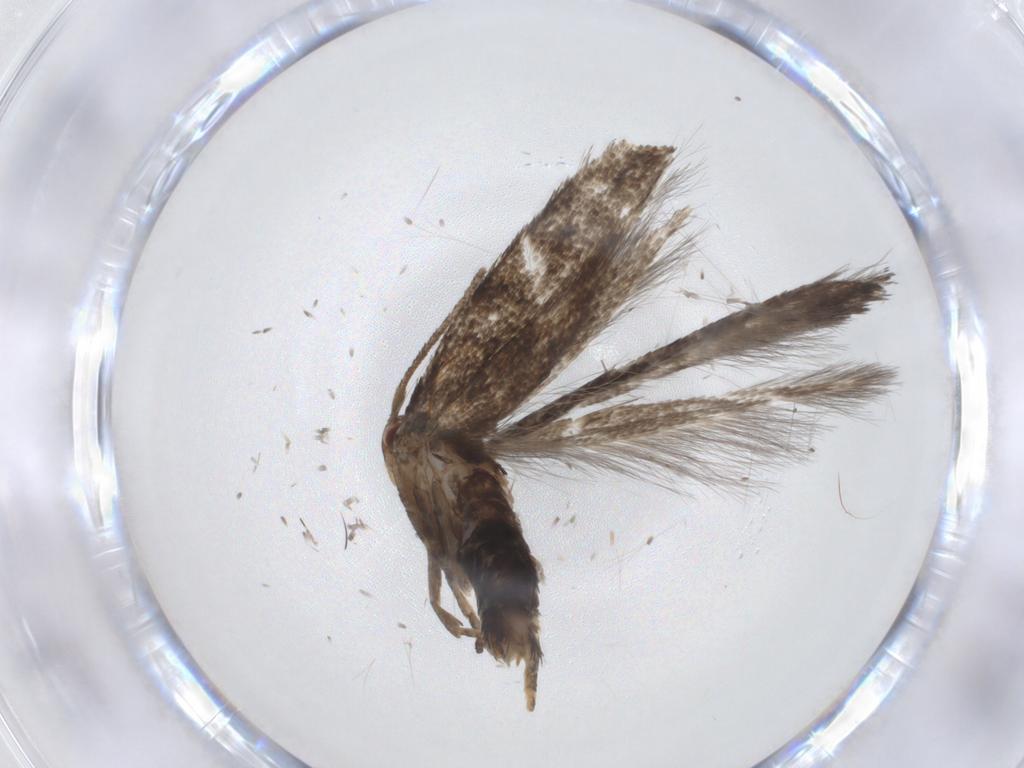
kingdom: Animalia
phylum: Arthropoda
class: Insecta
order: Lepidoptera
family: Momphidae
